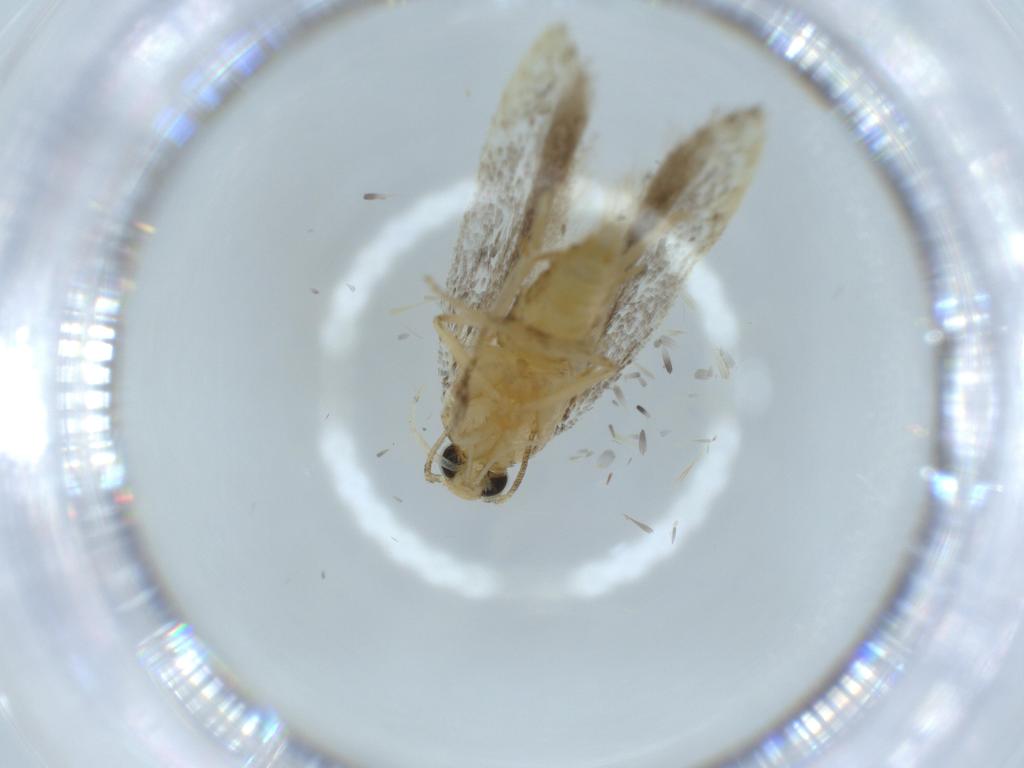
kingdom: Animalia
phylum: Arthropoda
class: Insecta
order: Lepidoptera
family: Autostichidae
